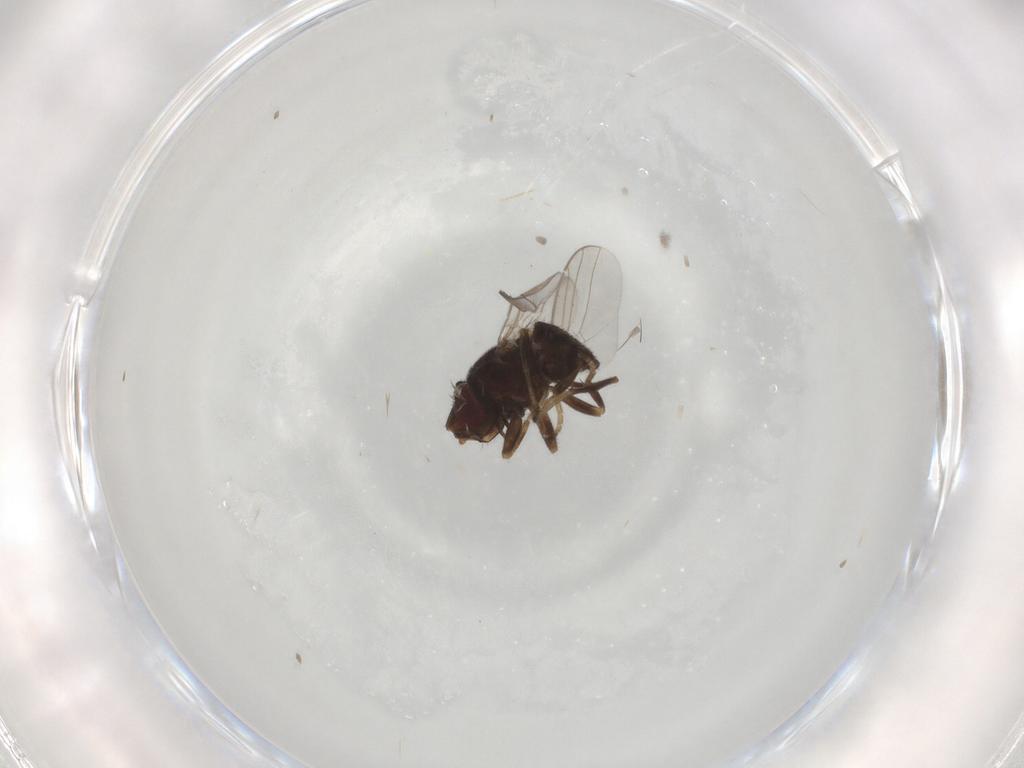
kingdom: Animalia
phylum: Arthropoda
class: Insecta
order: Diptera
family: Chloropidae
